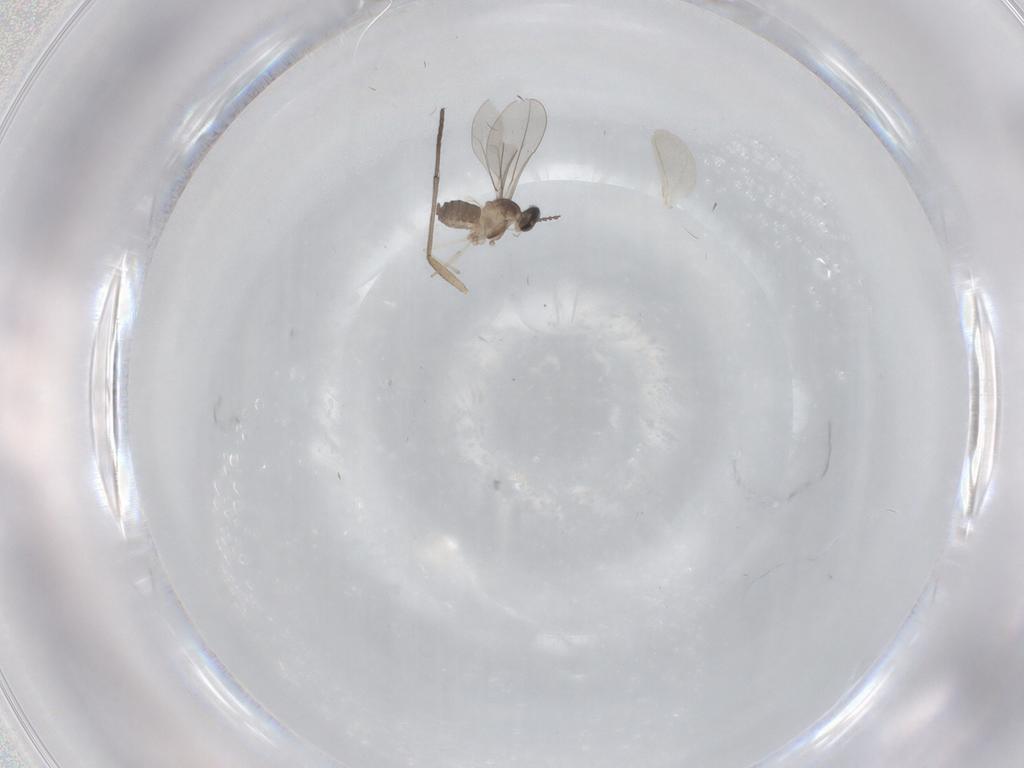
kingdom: Animalia
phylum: Arthropoda
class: Insecta
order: Diptera
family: Cecidomyiidae
